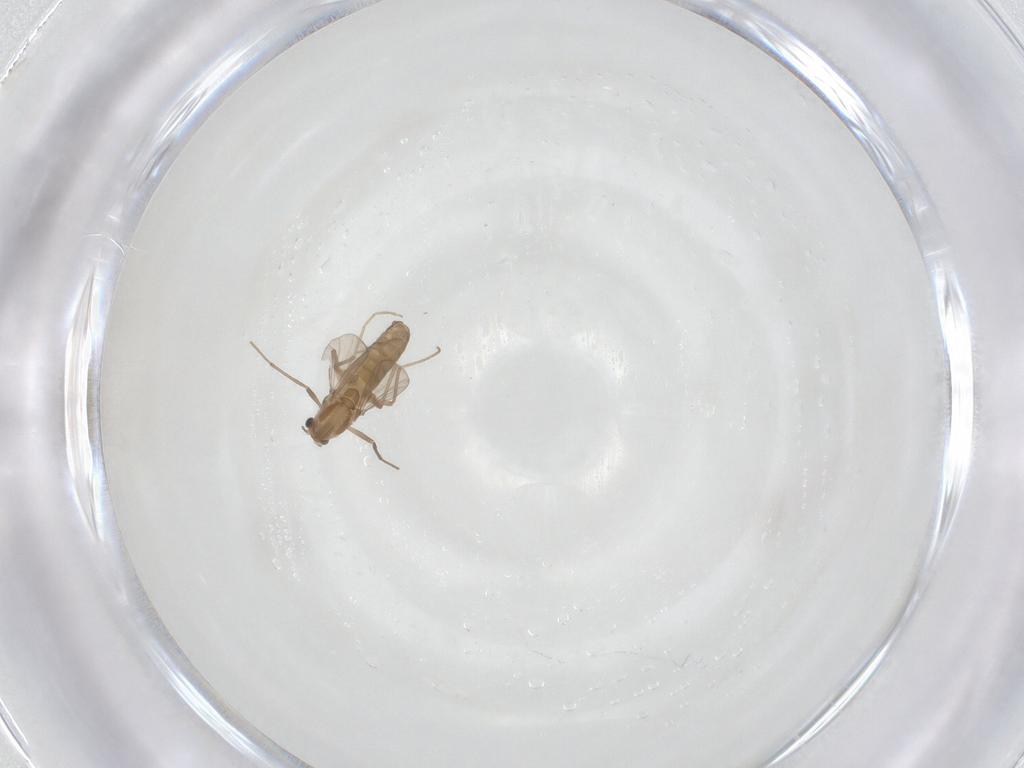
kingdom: Animalia
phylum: Arthropoda
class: Insecta
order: Diptera
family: Chironomidae
